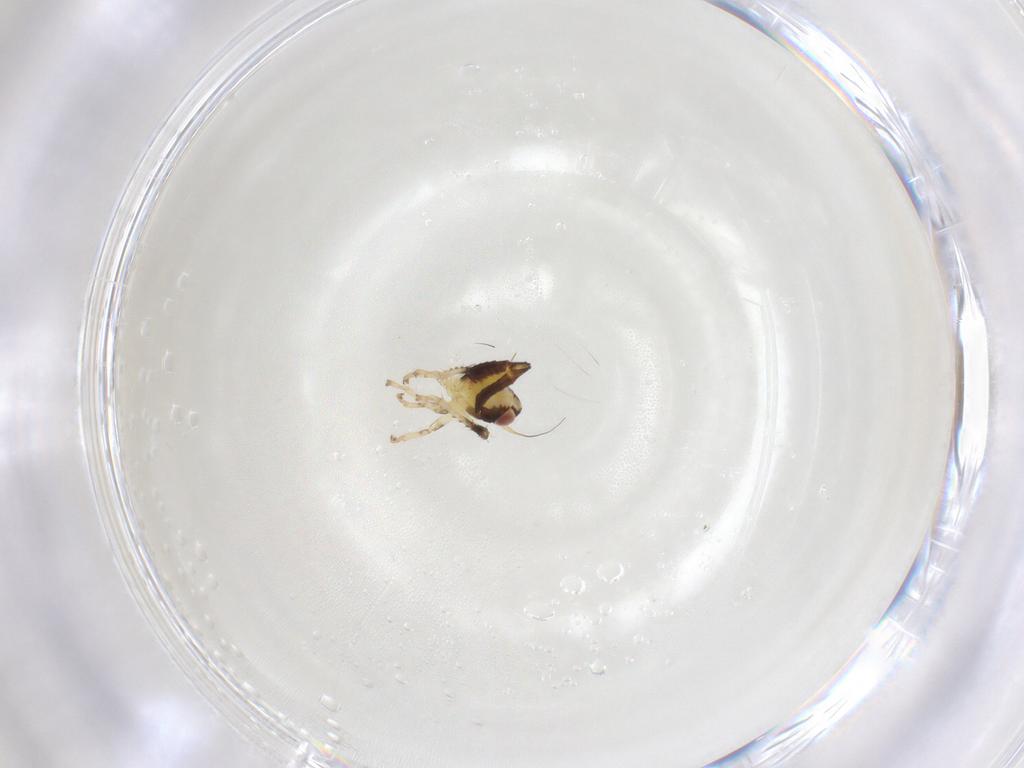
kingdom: Animalia
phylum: Arthropoda
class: Insecta
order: Hemiptera
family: Cicadellidae
